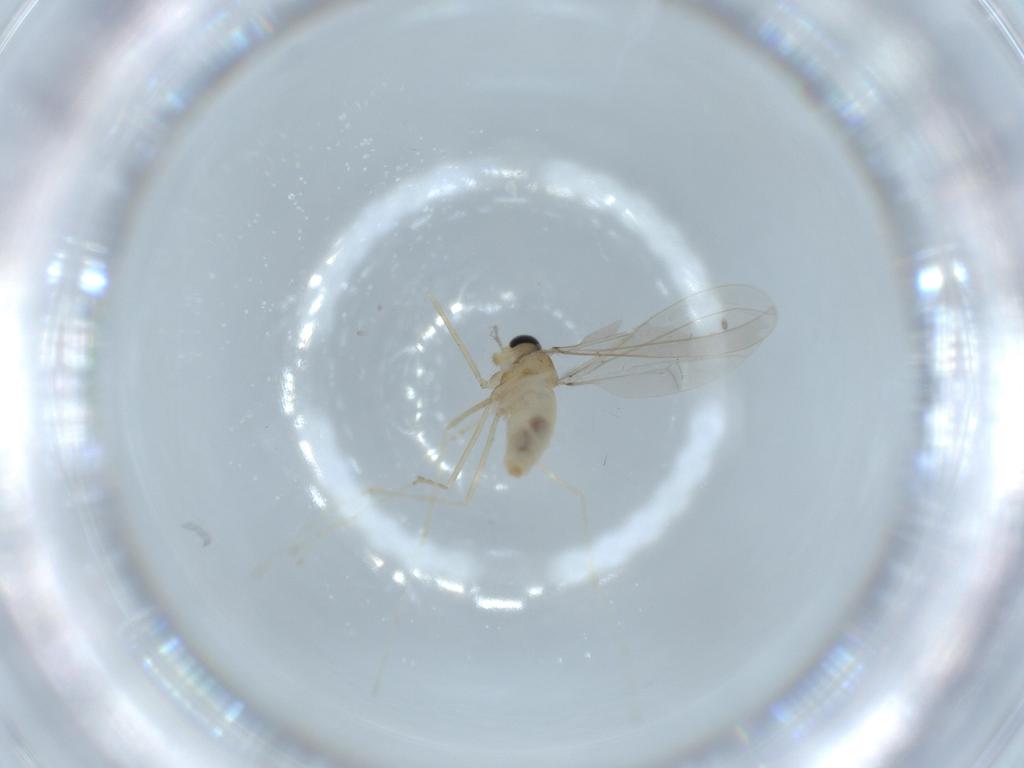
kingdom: Animalia
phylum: Arthropoda
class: Insecta
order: Diptera
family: Cecidomyiidae
